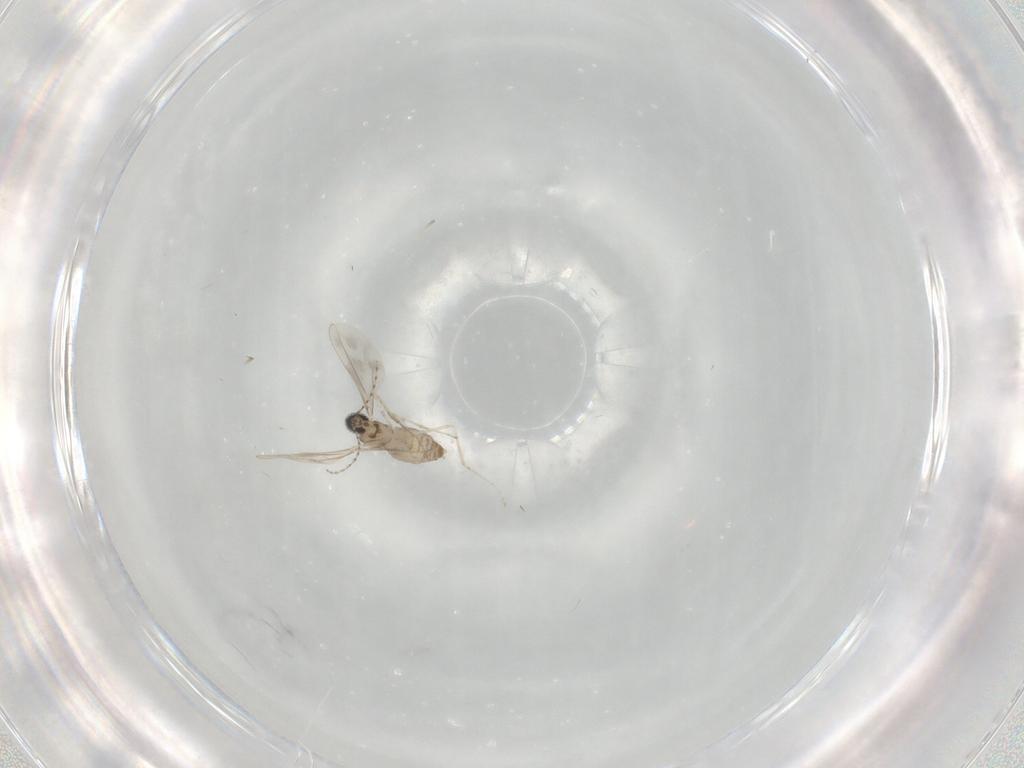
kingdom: Animalia
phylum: Arthropoda
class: Insecta
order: Diptera
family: Cecidomyiidae
